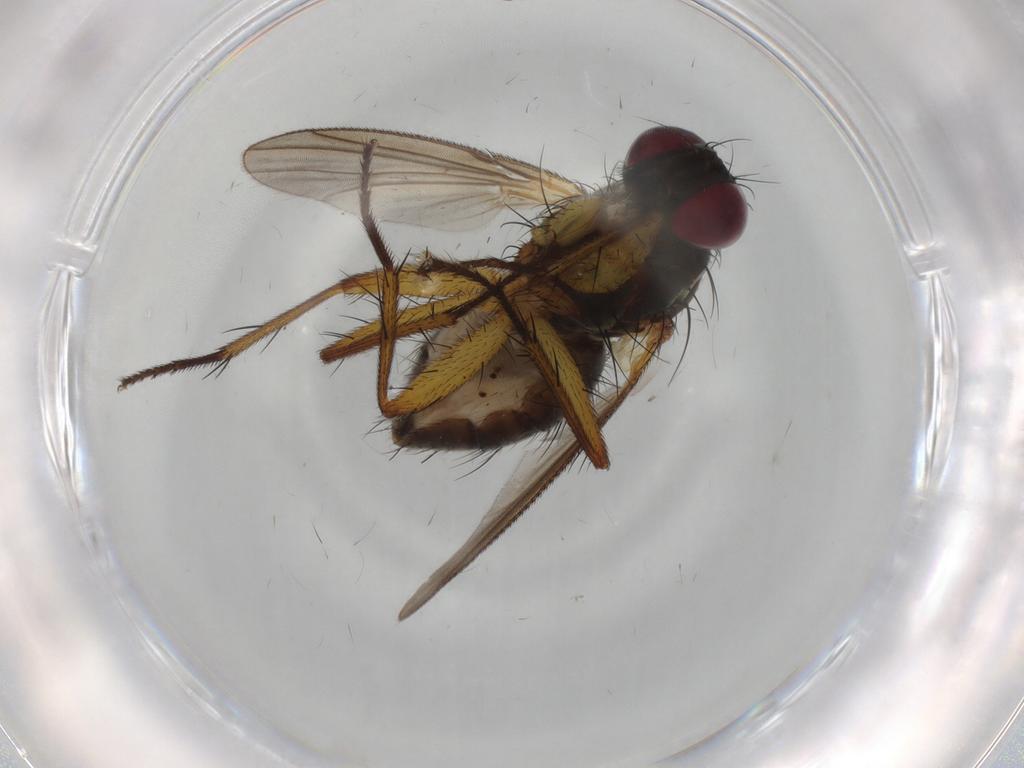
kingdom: Animalia
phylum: Arthropoda
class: Insecta
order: Diptera
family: Muscidae
